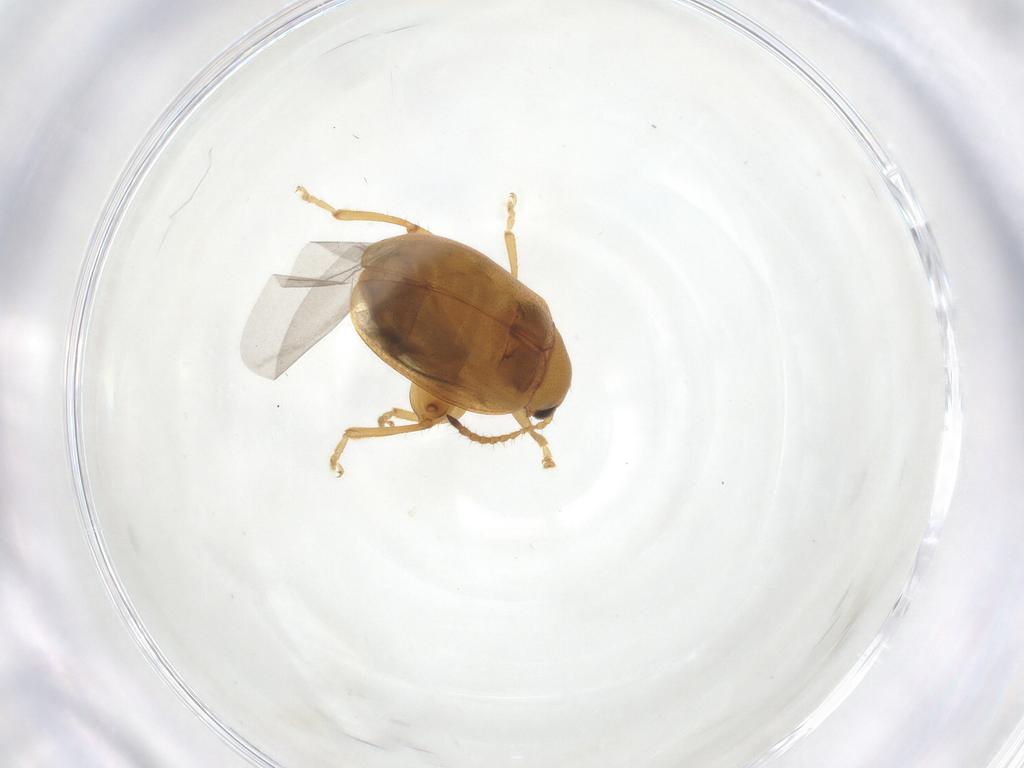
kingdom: Animalia
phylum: Arthropoda
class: Insecta
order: Coleoptera
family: Chrysomelidae
